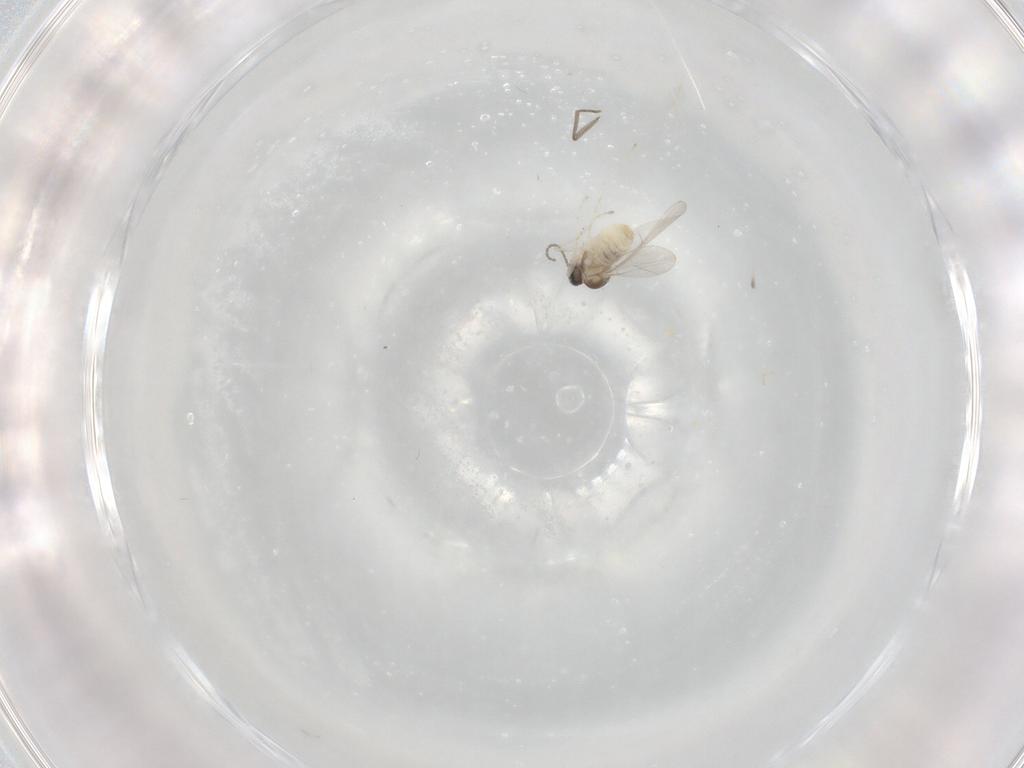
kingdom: Animalia
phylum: Arthropoda
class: Insecta
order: Diptera
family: Cecidomyiidae
